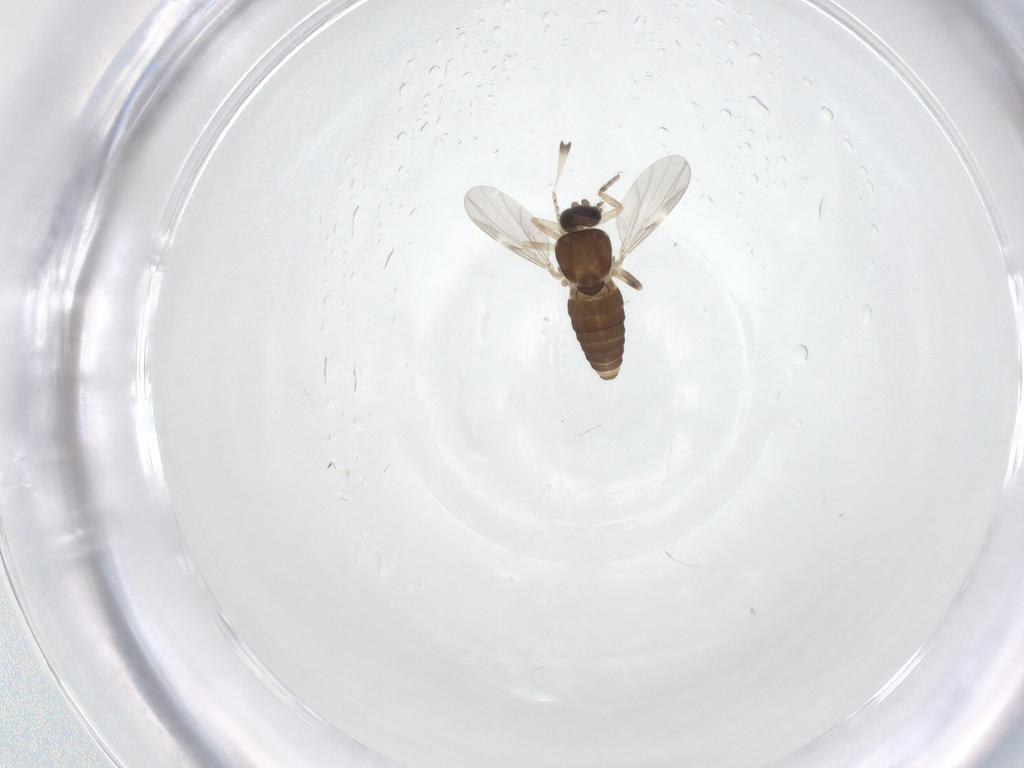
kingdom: Animalia
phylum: Arthropoda
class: Insecta
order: Diptera
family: Ceratopogonidae
